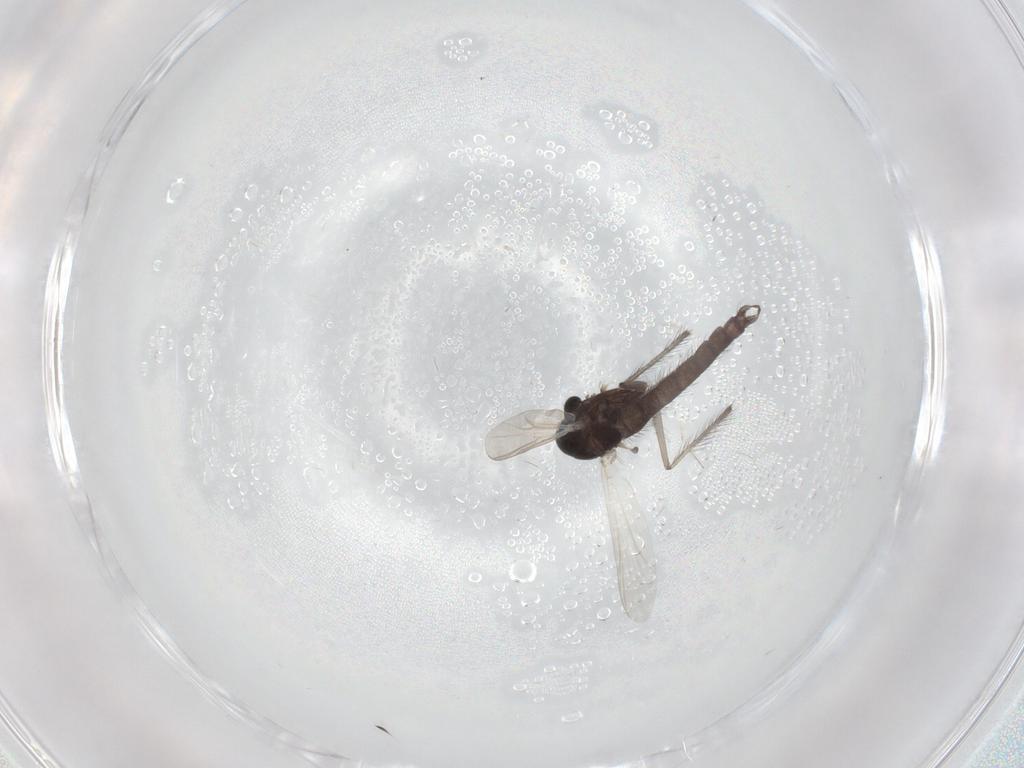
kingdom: Animalia
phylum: Arthropoda
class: Insecta
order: Diptera
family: Chironomidae
